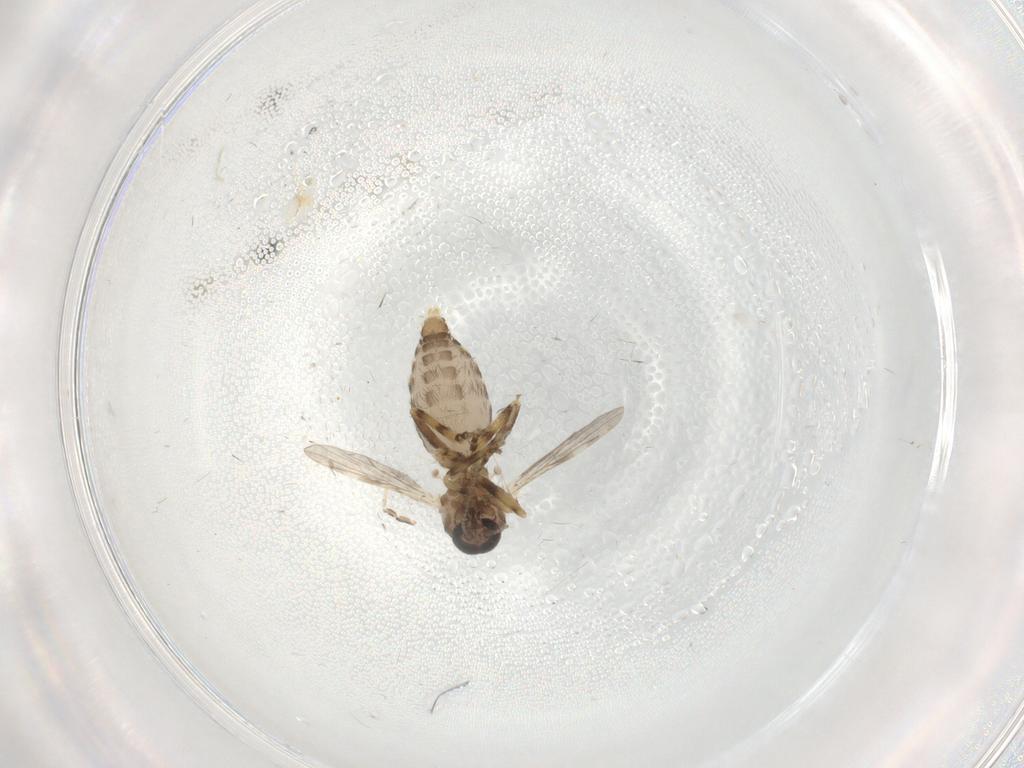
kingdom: Animalia
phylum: Arthropoda
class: Insecta
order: Diptera
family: Ceratopogonidae
